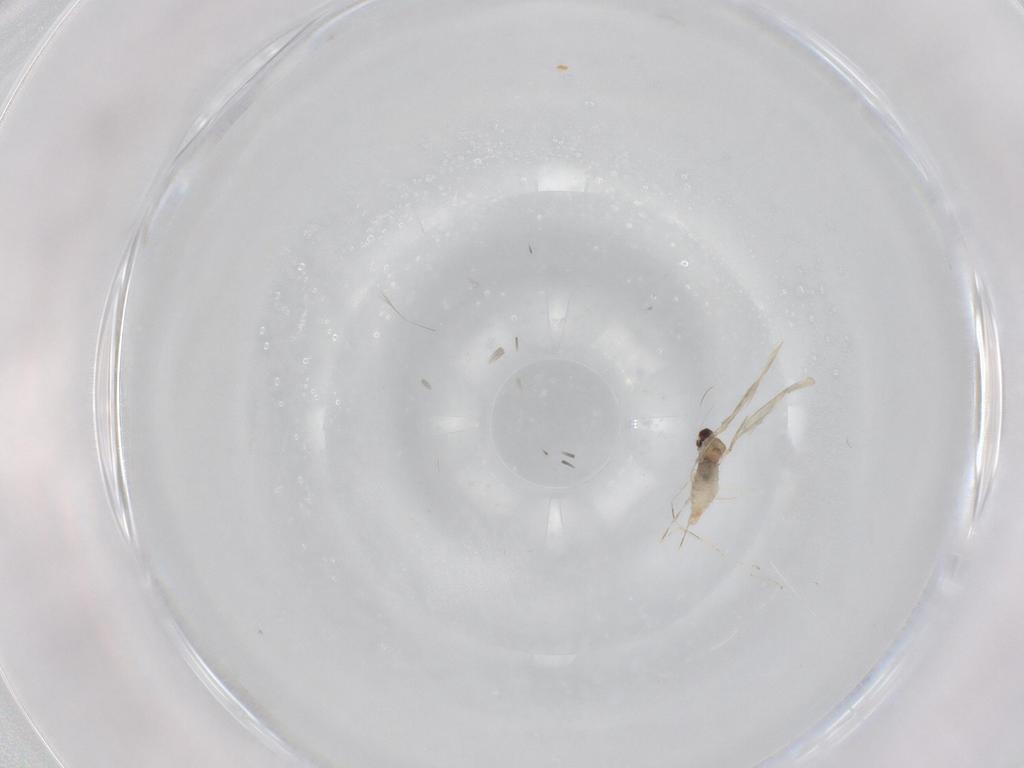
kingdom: Animalia
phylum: Arthropoda
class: Insecta
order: Diptera
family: Cecidomyiidae
